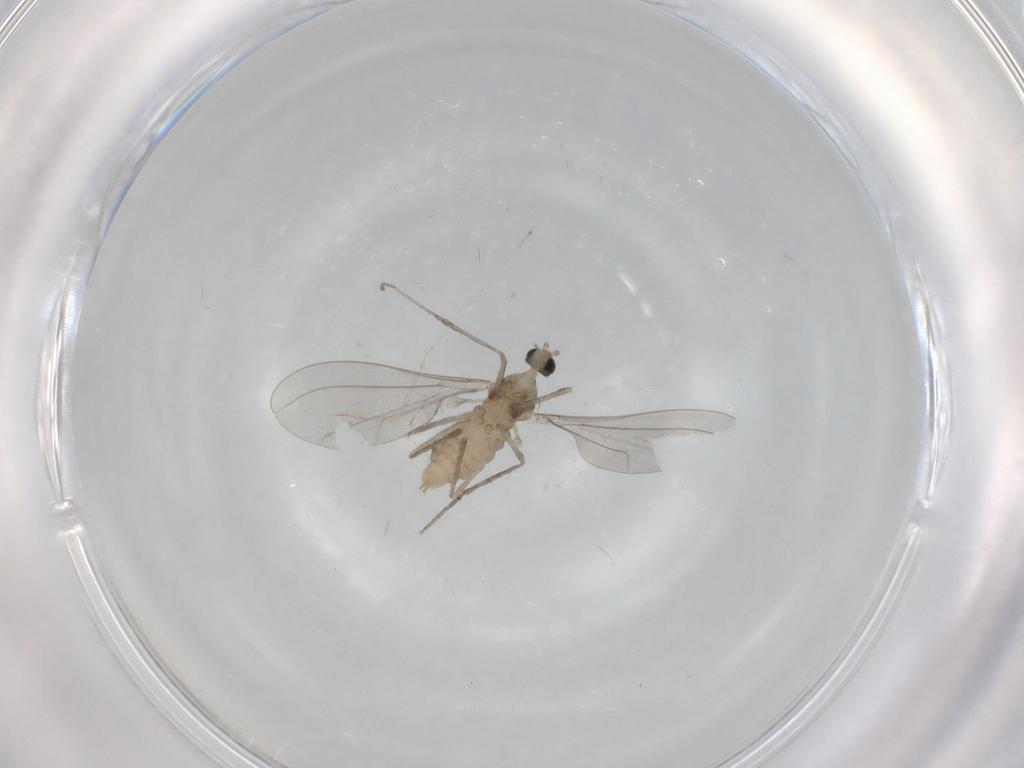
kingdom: Animalia
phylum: Arthropoda
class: Insecta
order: Diptera
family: Cecidomyiidae
